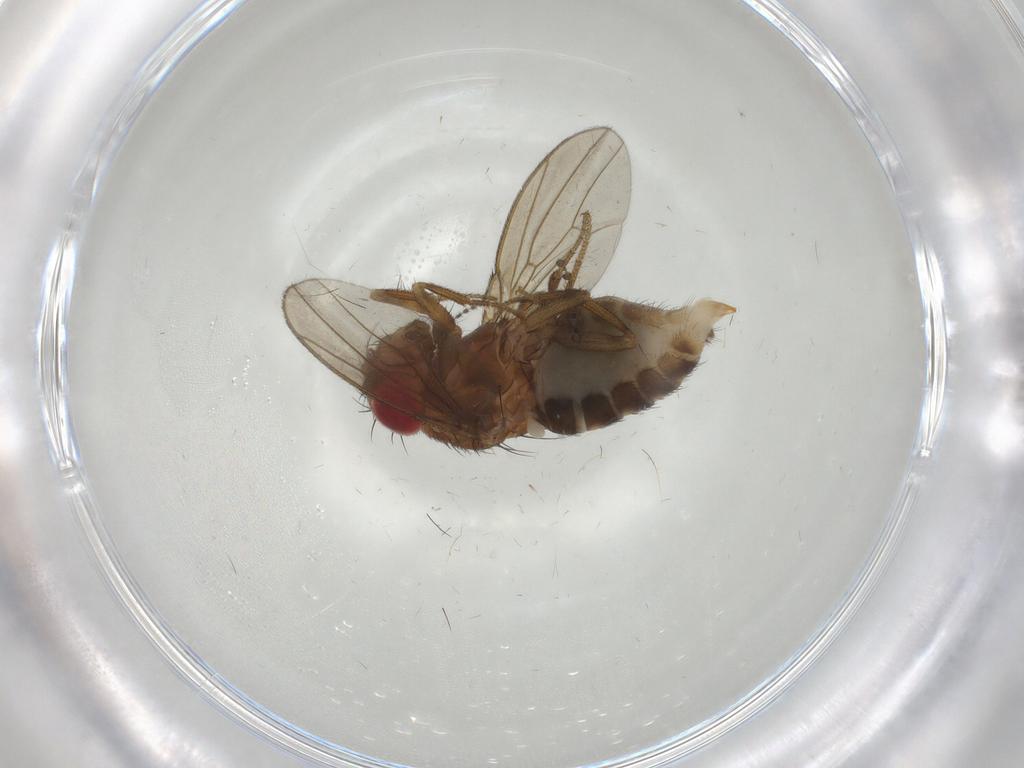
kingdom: Animalia
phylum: Arthropoda
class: Insecta
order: Diptera
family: Drosophilidae
